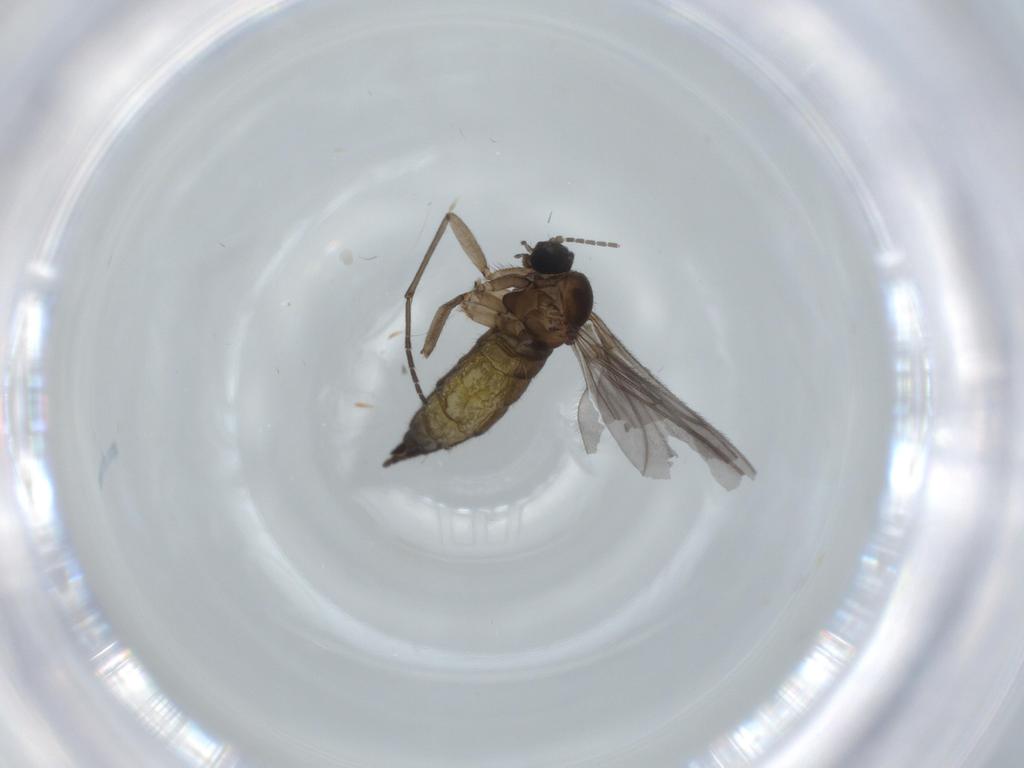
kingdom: Animalia
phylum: Arthropoda
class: Insecta
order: Diptera
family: Sciaridae
